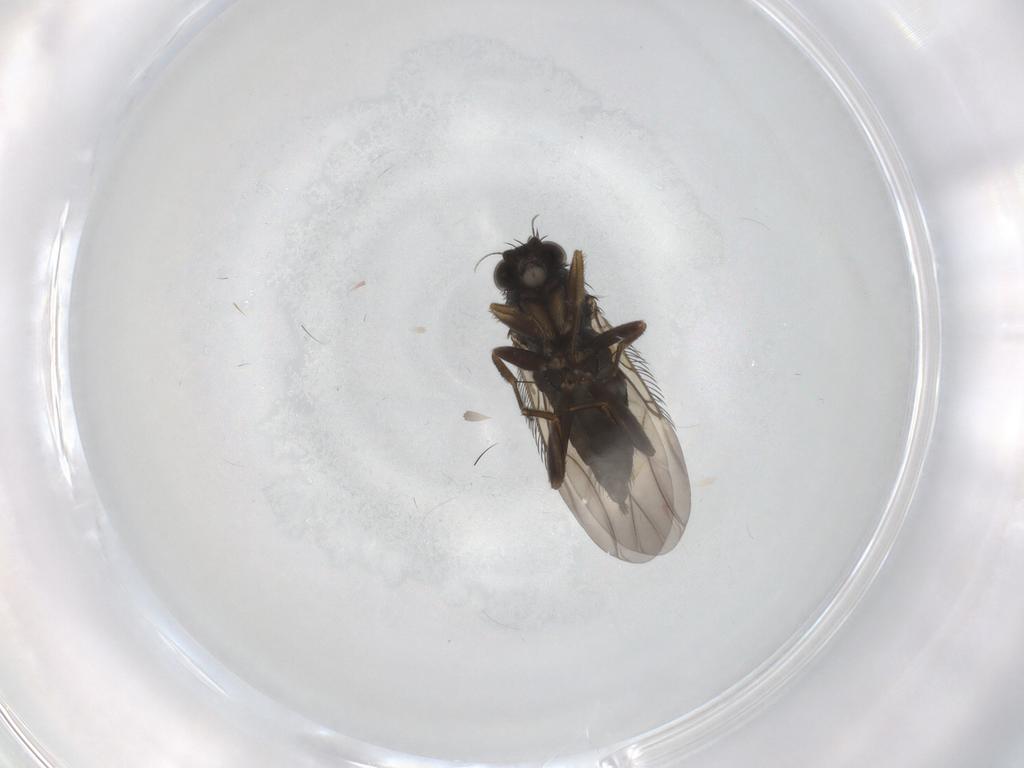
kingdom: Animalia
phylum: Arthropoda
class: Insecta
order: Diptera
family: Phoridae
